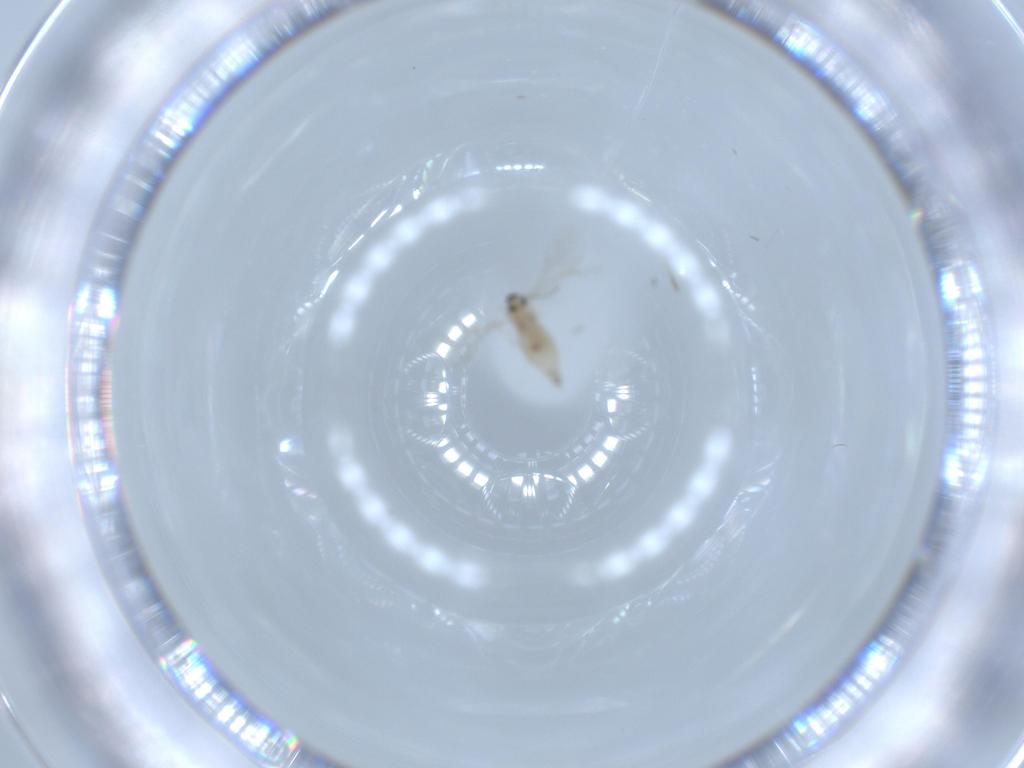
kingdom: Animalia
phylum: Arthropoda
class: Insecta
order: Diptera
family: Cecidomyiidae
